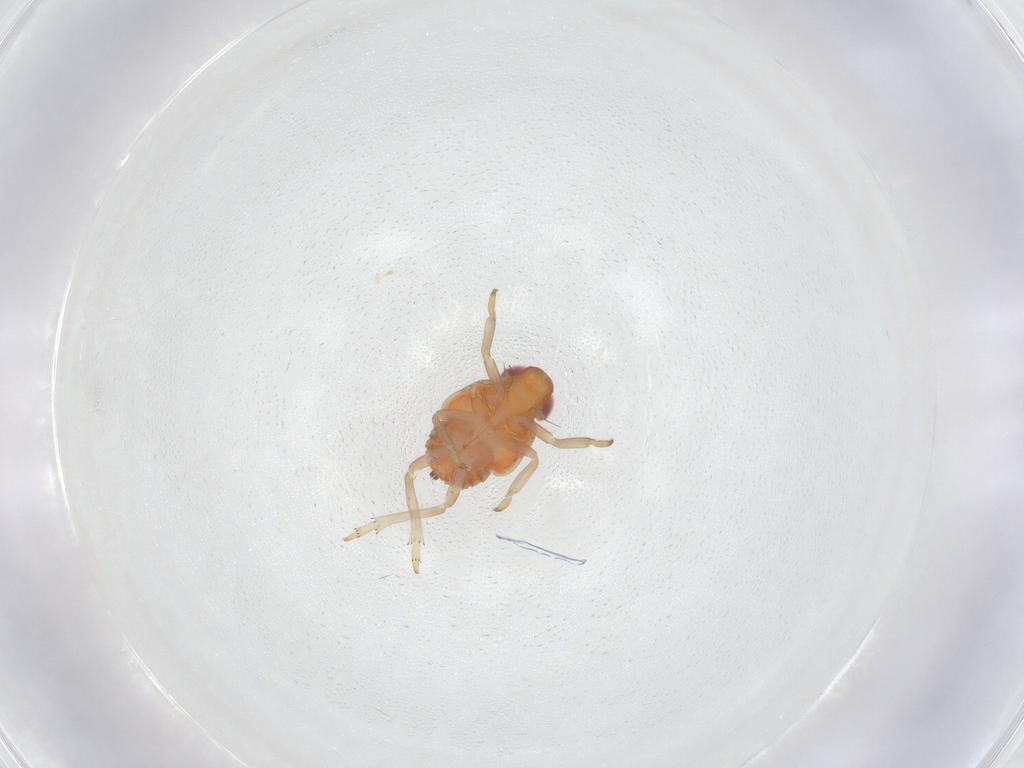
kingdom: Animalia
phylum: Arthropoda
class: Insecta
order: Hemiptera
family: Fulgoroidea_incertae_sedis
